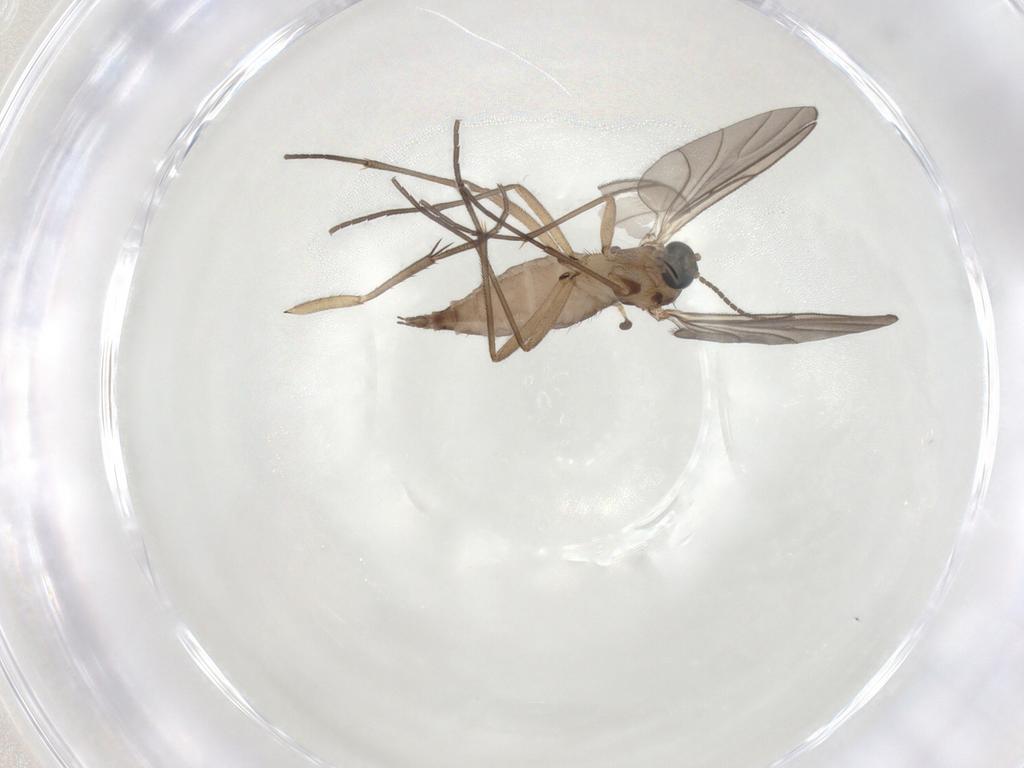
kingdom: Animalia
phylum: Arthropoda
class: Insecta
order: Diptera
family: Sciaridae
